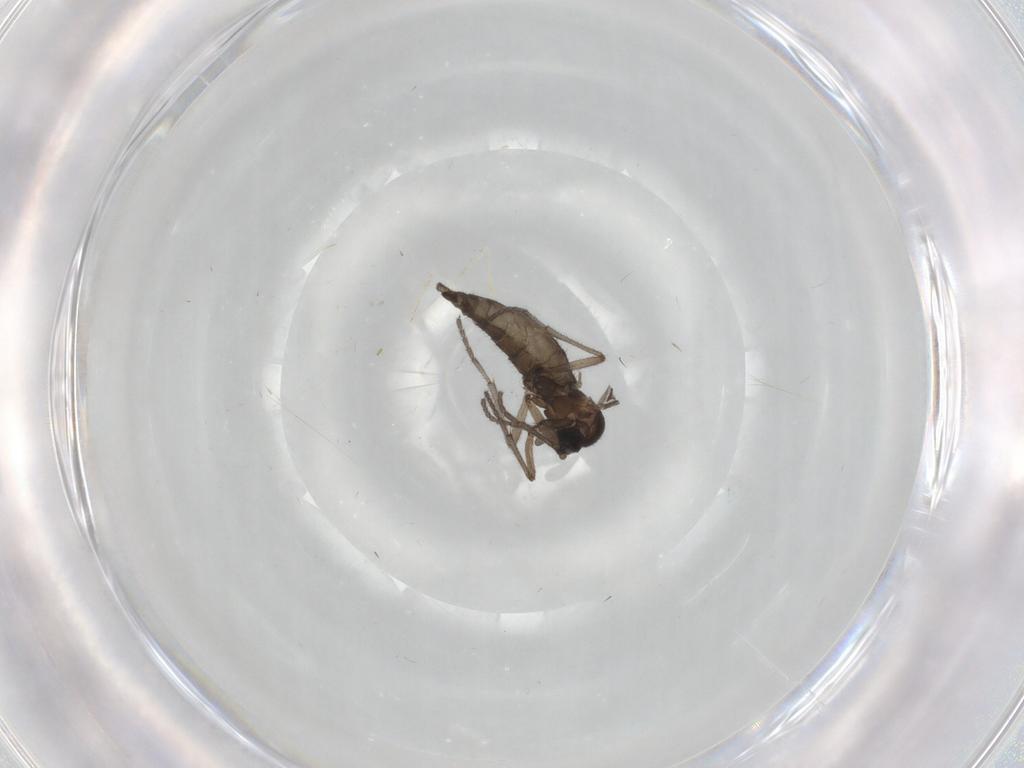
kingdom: Animalia
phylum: Arthropoda
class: Insecta
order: Diptera
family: Sciaridae
